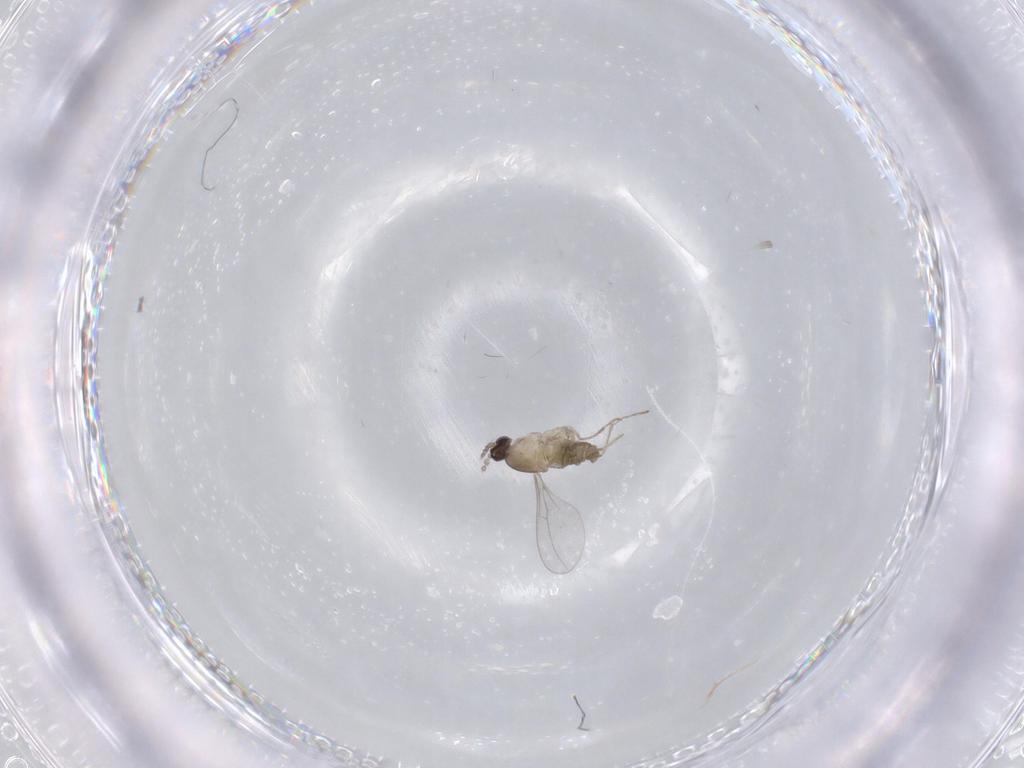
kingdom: Animalia
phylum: Arthropoda
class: Insecta
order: Diptera
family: Cecidomyiidae
